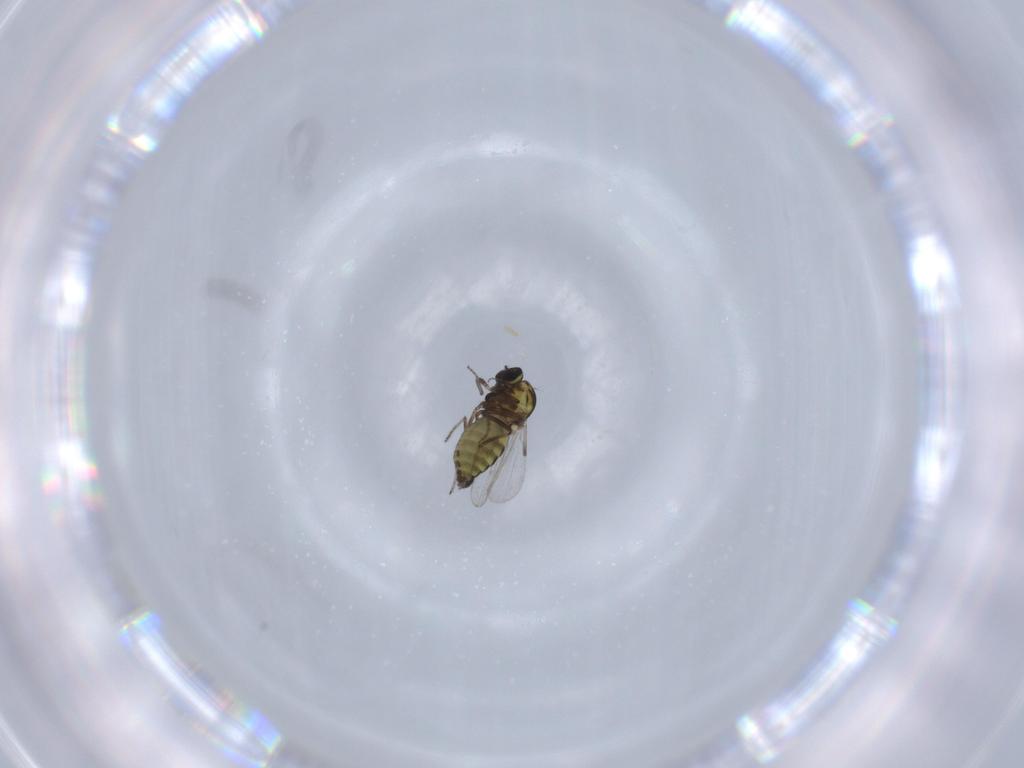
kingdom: Animalia
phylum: Arthropoda
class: Insecta
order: Diptera
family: Ceratopogonidae
